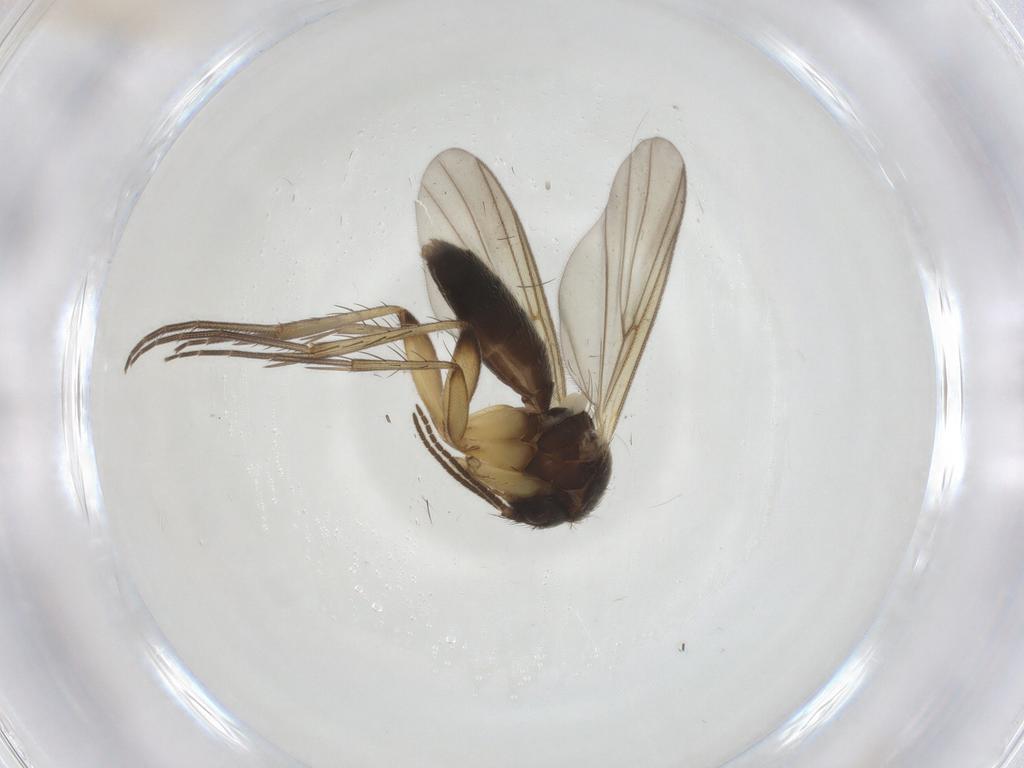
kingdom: Animalia
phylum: Arthropoda
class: Insecta
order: Diptera
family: Mycetophilidae
